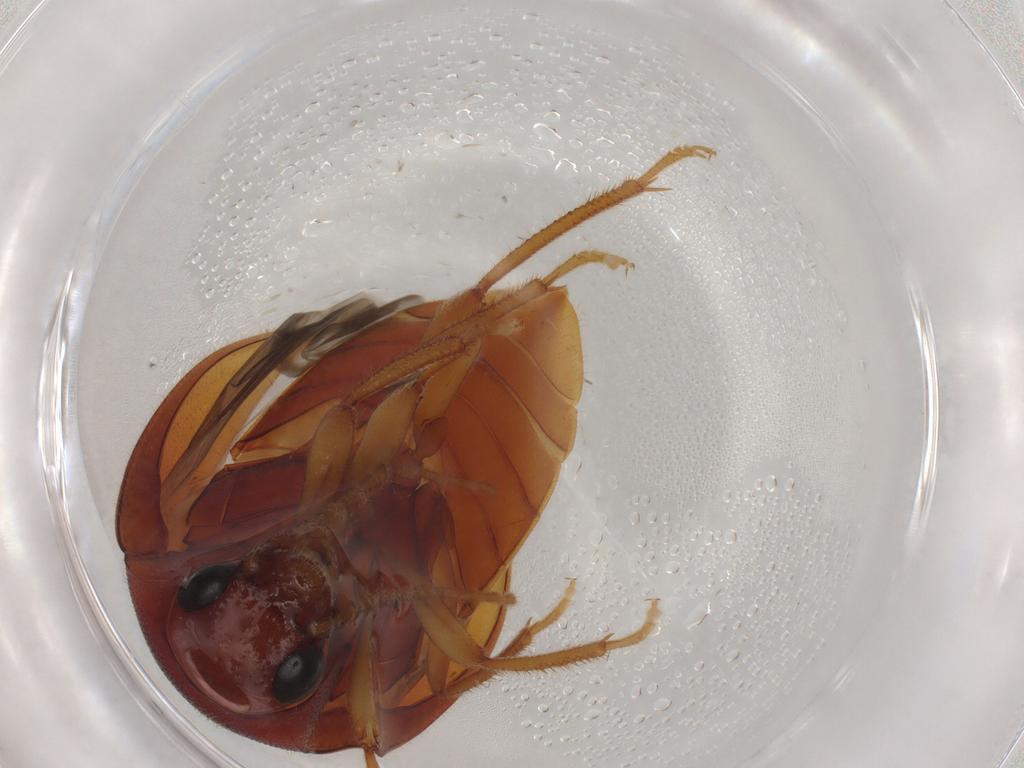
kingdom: Animalia
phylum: Arthropoda
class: Insecta
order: Coleoptera
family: Ptilodactylidae
